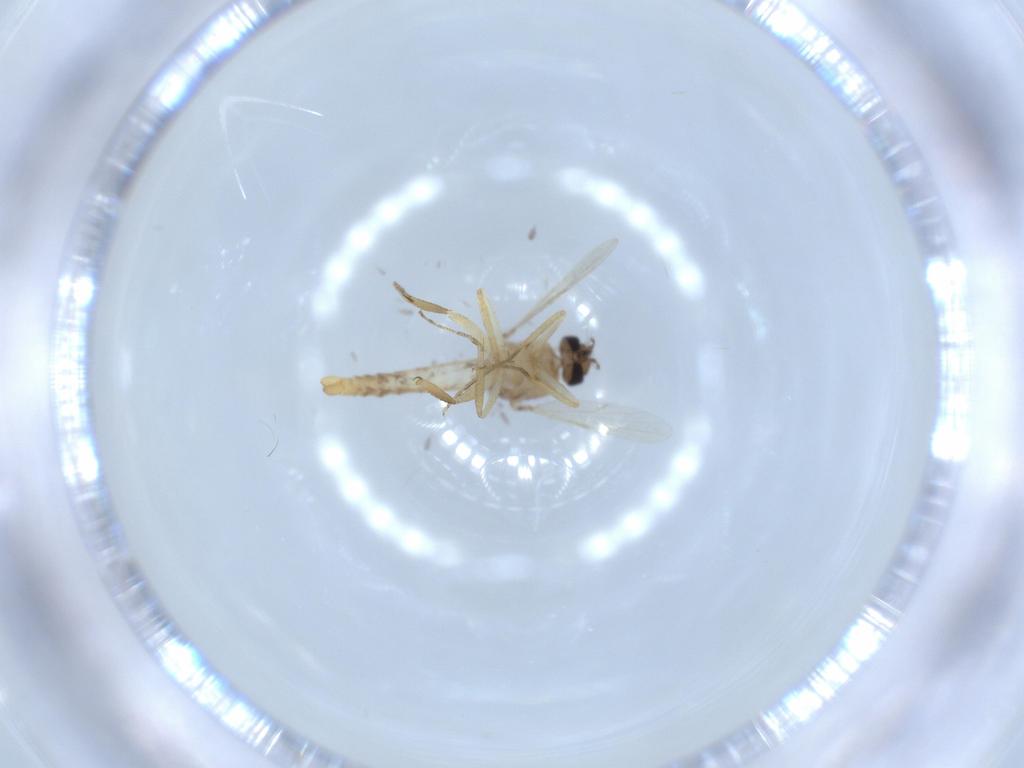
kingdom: Animalia
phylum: Arthropoda
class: Insecta
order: Diptera
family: Ceratopogonidae
